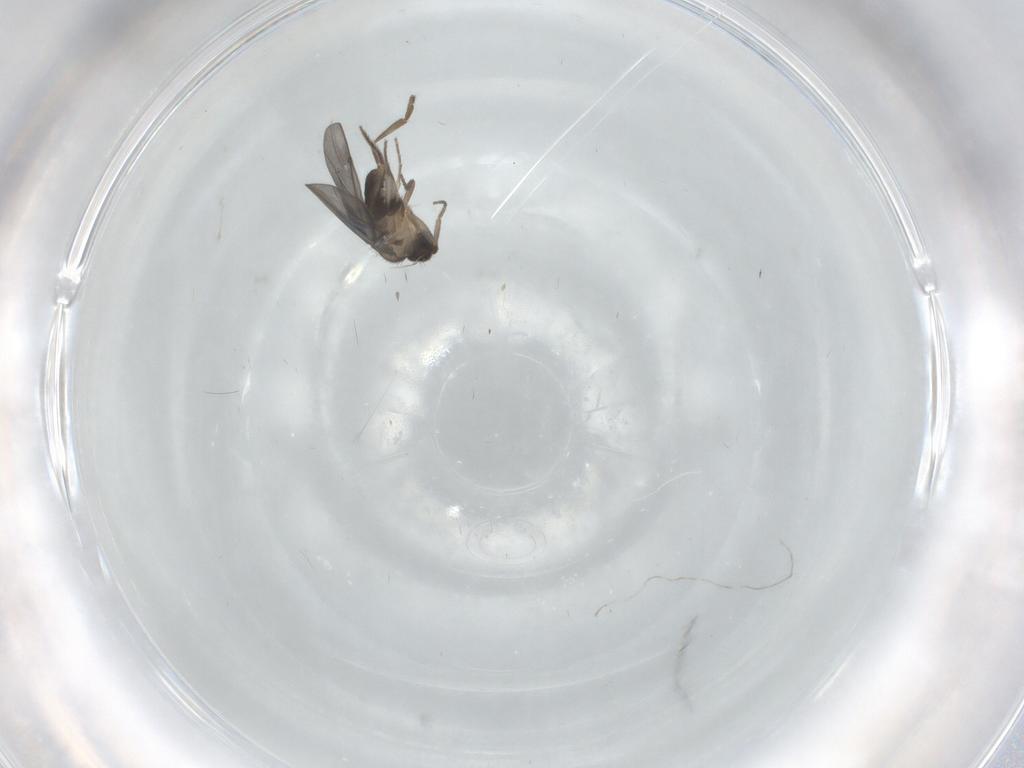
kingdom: Animalia
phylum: Arthropoda
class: Insecta
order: Diptera
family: Phoridae
